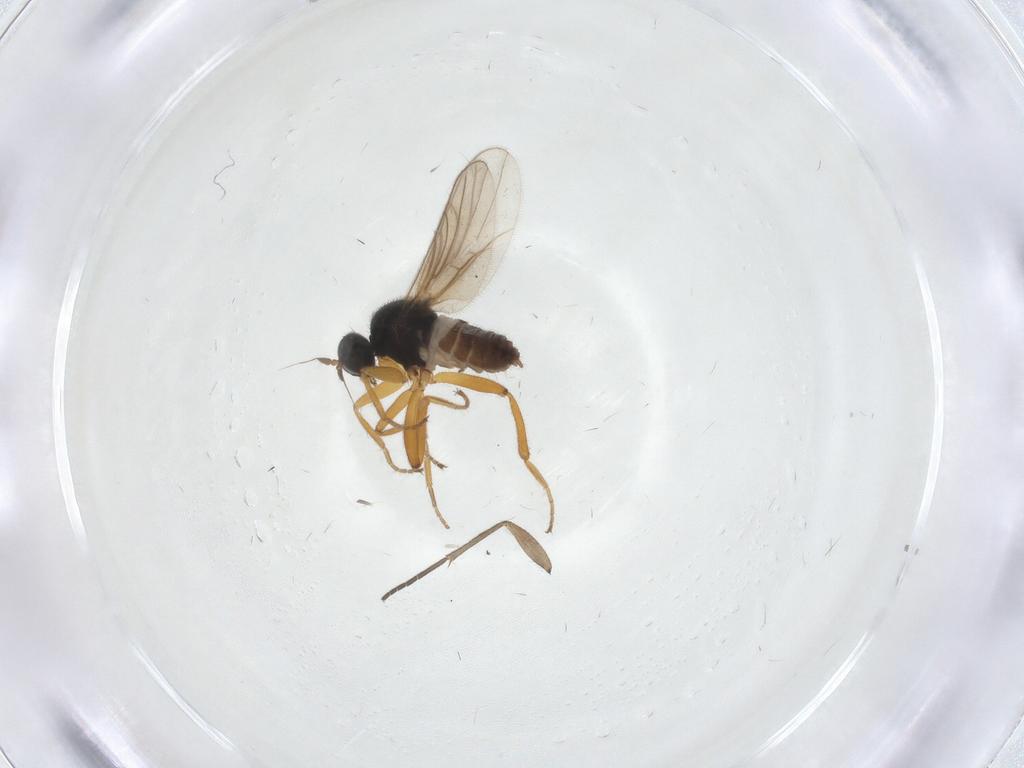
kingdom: Animalia
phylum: Arthropoda
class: Insecta
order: Diptera
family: Hybotidae
